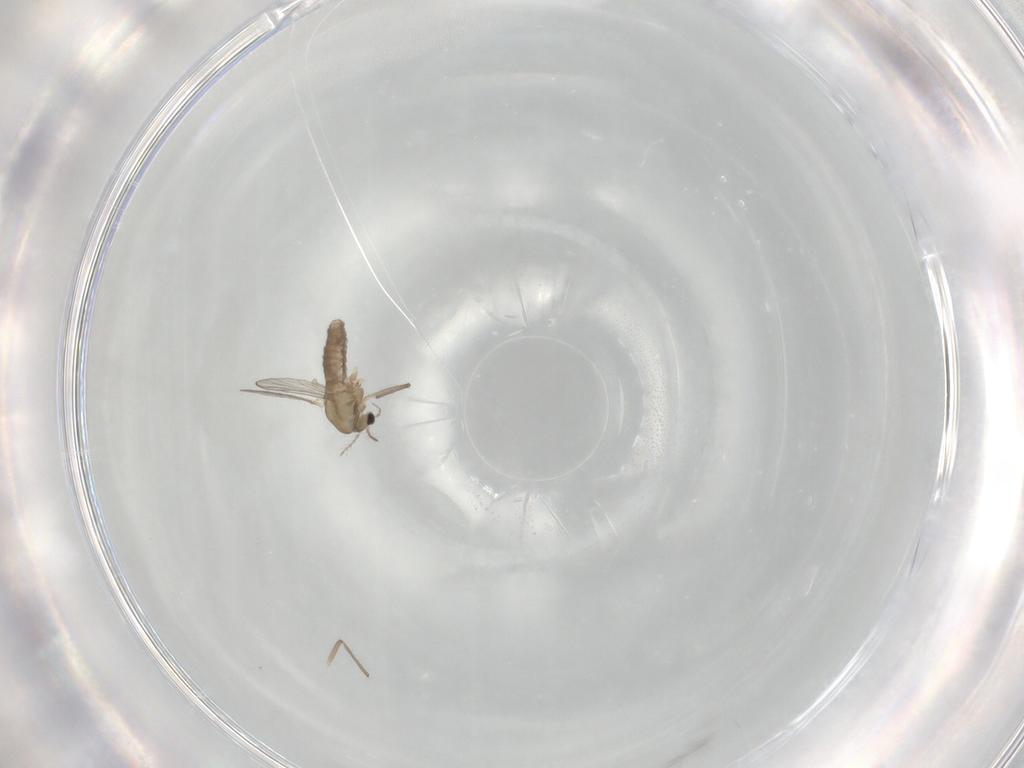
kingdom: Animalia
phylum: Arthropoda
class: Insecta
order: Diptera
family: Chironomidae
